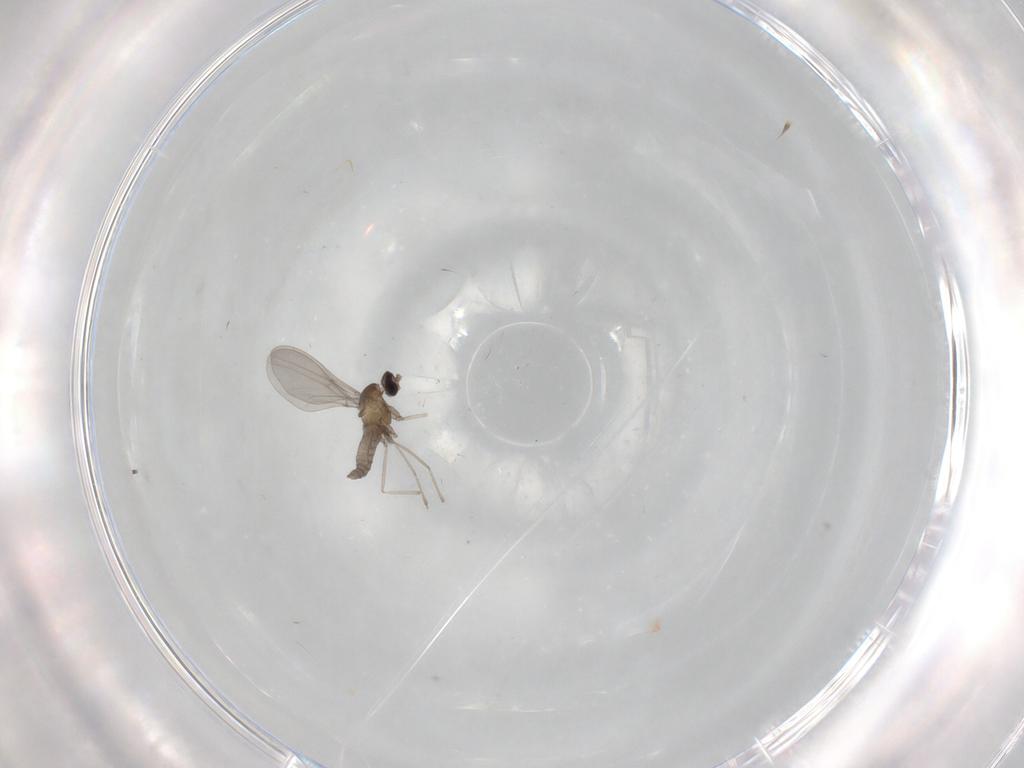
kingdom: Animalia
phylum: Arthropoda
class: Insecta
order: Diptera
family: Cecidomyiidae
